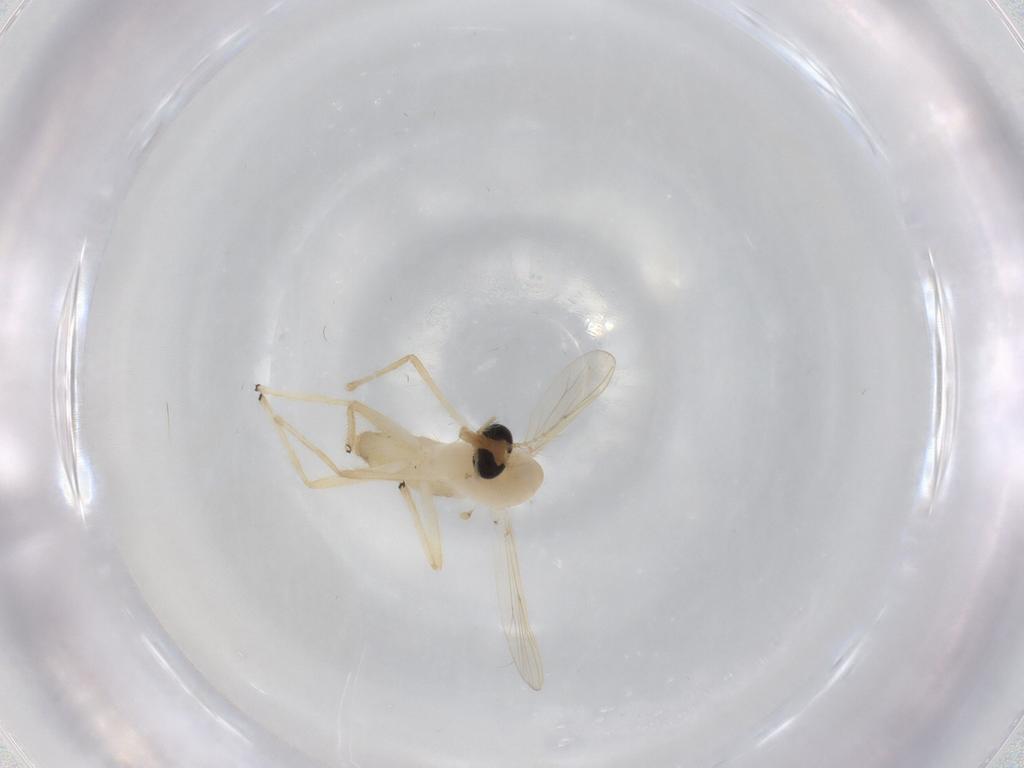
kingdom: Animalia
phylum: Arthropoda
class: Insecta
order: Diptera
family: Chironomidae
